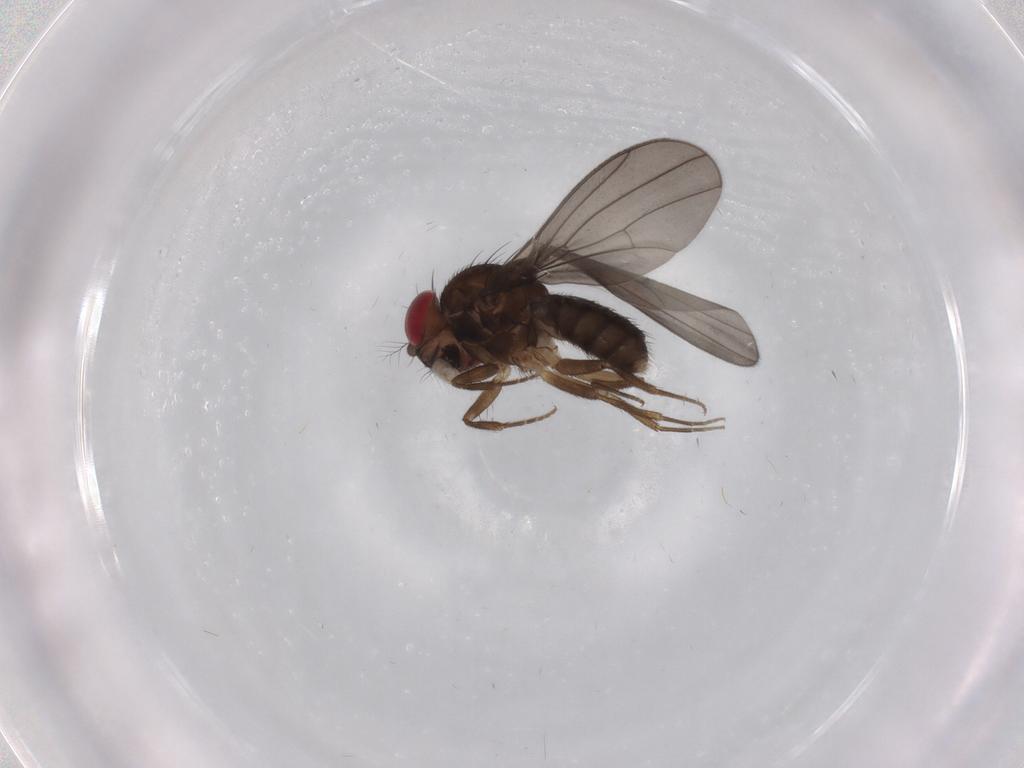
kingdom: Animalia
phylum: Arthropoda
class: Insecta
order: Diptera
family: Drosophilidae
